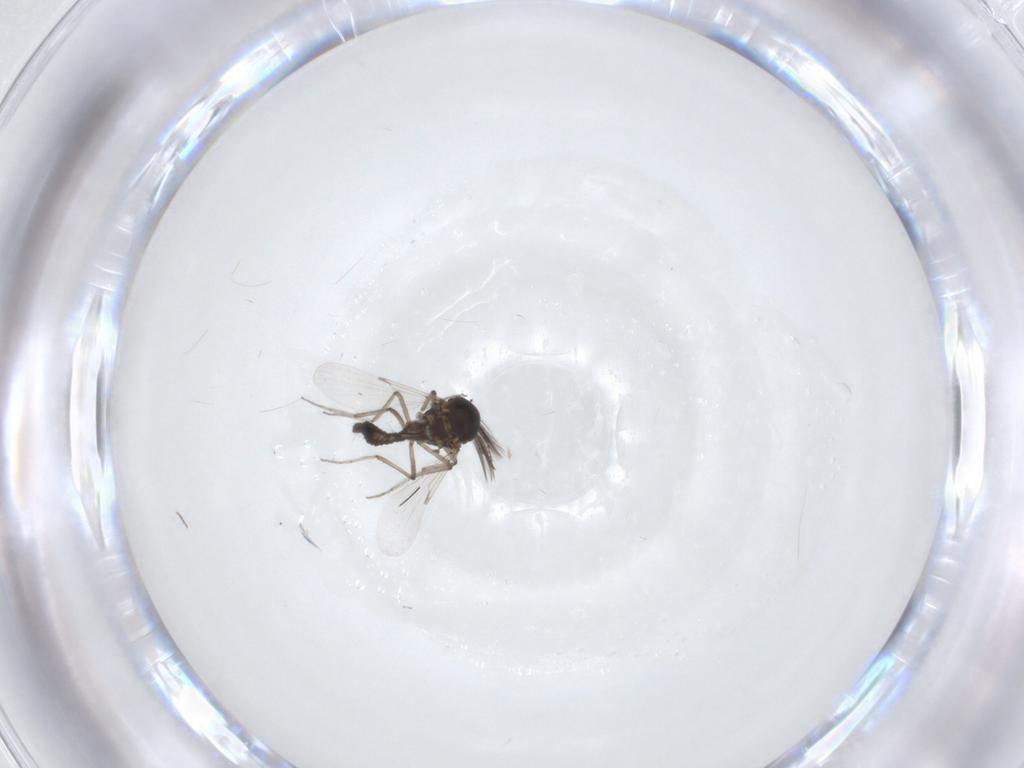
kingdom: Animalia
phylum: Arthropoda
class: Insecta
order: Diptera
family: Ceratopogonidae
